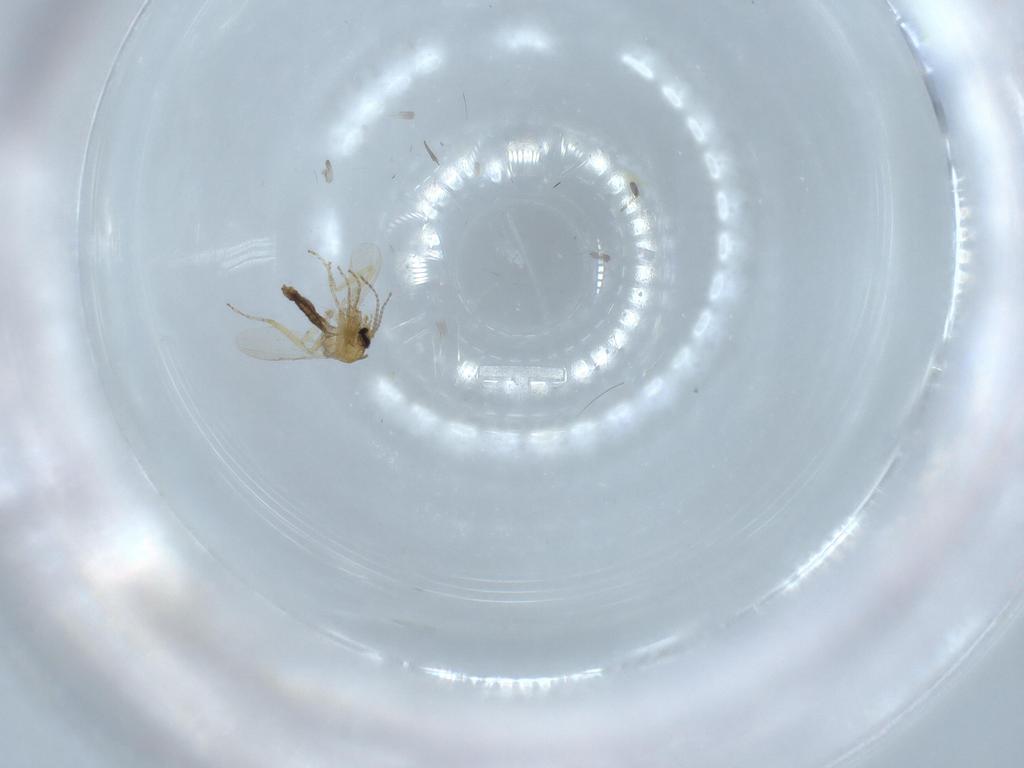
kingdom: Animalia
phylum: Arthropoda
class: Insecta
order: Diptera
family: Ceratopogonidae
